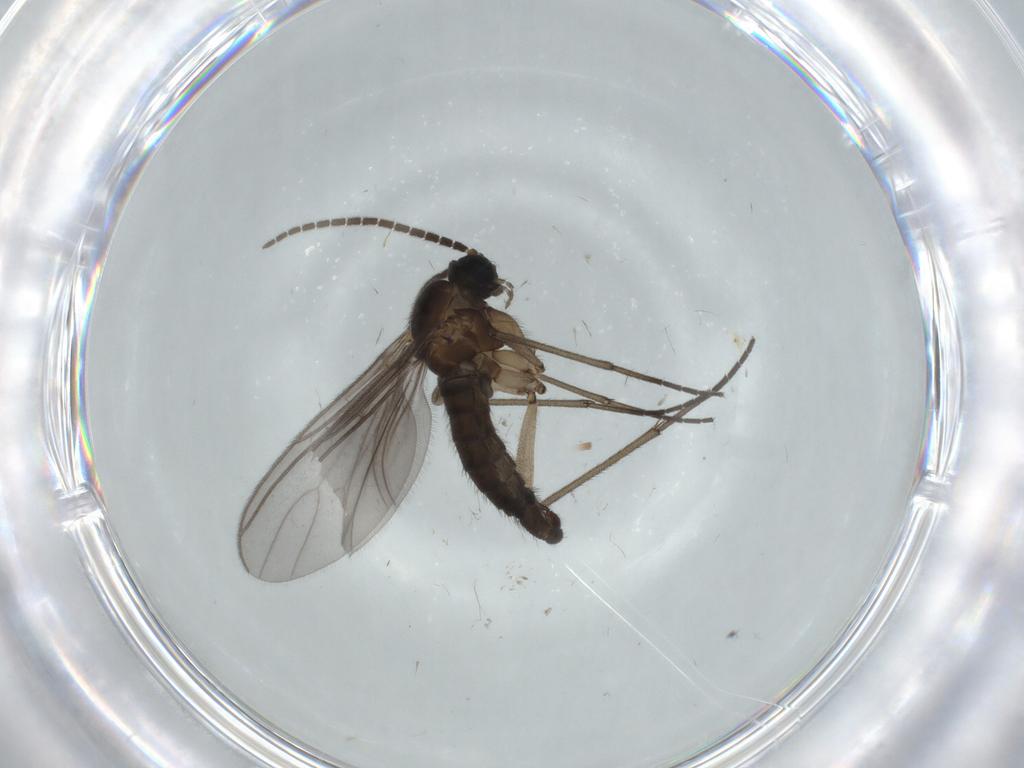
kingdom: Animalia
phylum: Arthropoda
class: Insecta
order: Diptera
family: Sciaridae
